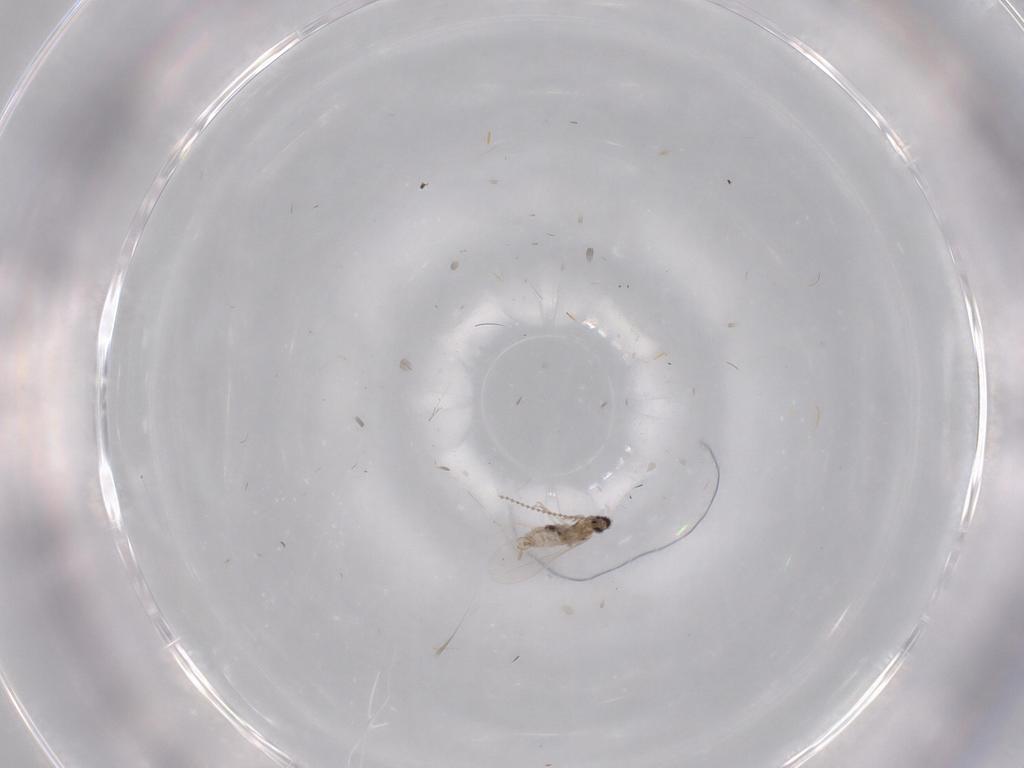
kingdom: Animalia
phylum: Arthropoda
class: Insecta
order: Diptera
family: Cecidomyiidae
